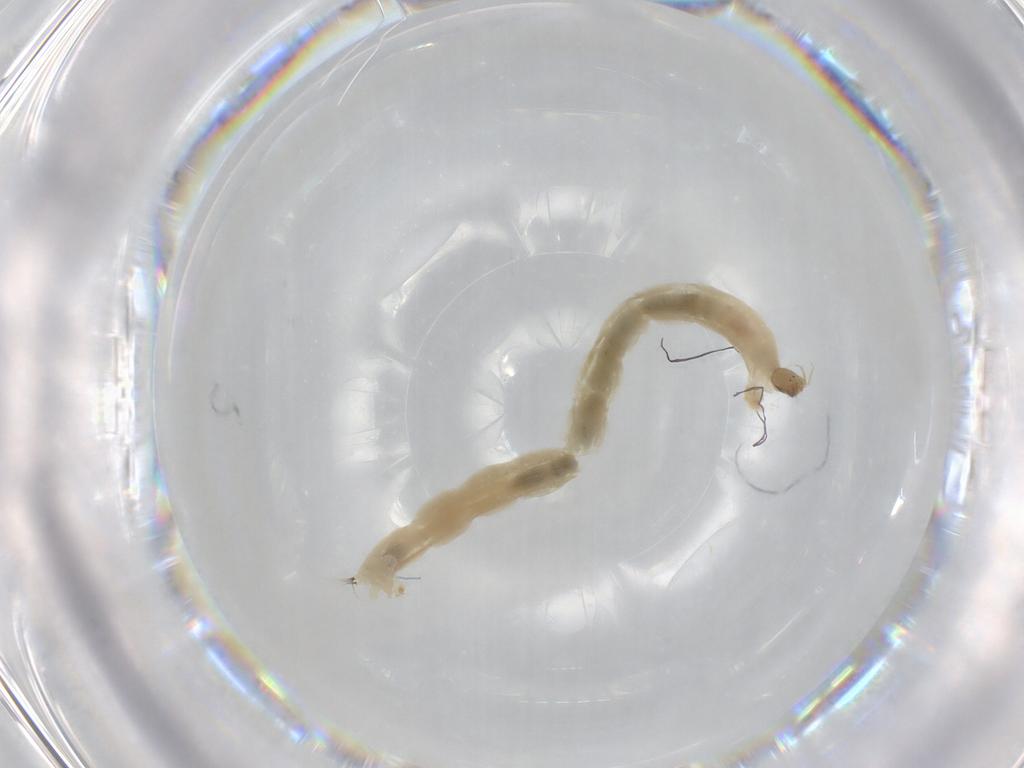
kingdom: Animalia
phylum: Arthropoda
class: Insecta
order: Diptera
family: Chironomidae
